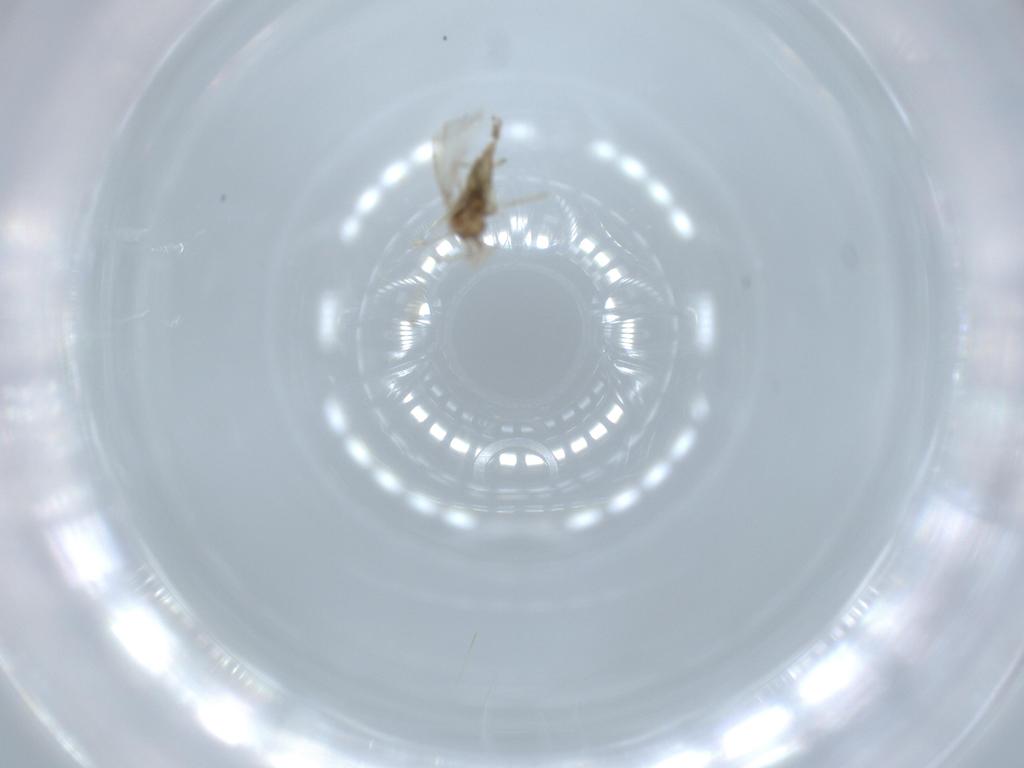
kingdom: Animalia
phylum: Arthropoda
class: Insecta
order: Diptera
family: Cecidomyiidae
